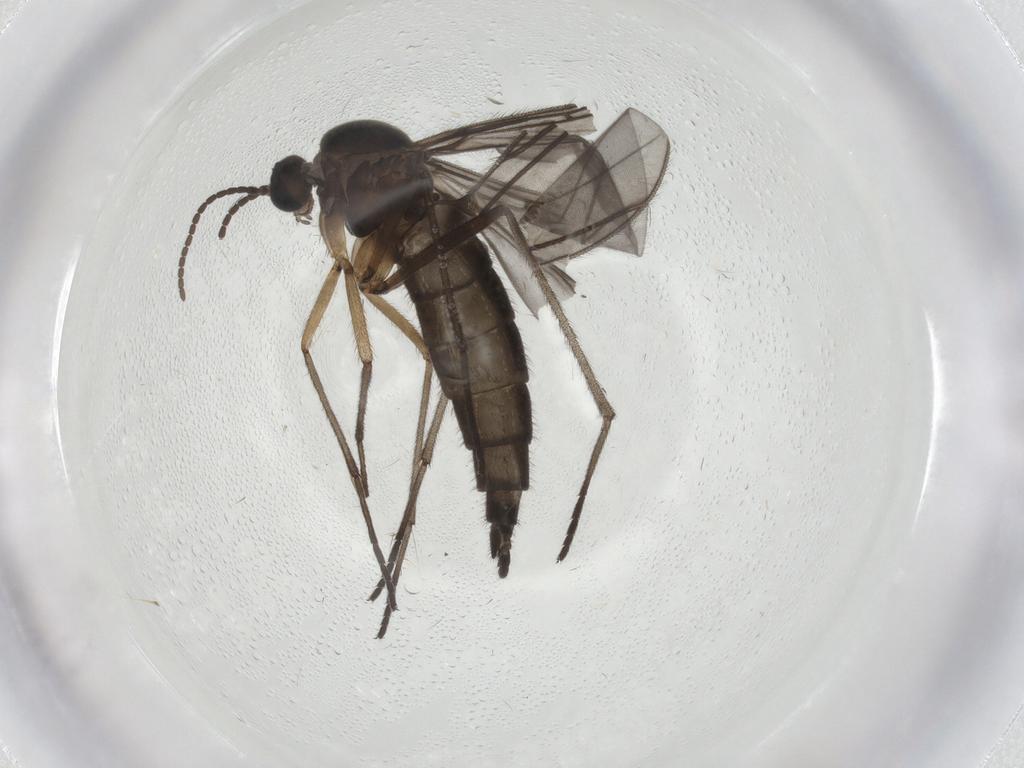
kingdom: Animalia
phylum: Arthropoda
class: Insecta
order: Diptera
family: Sciaridae
